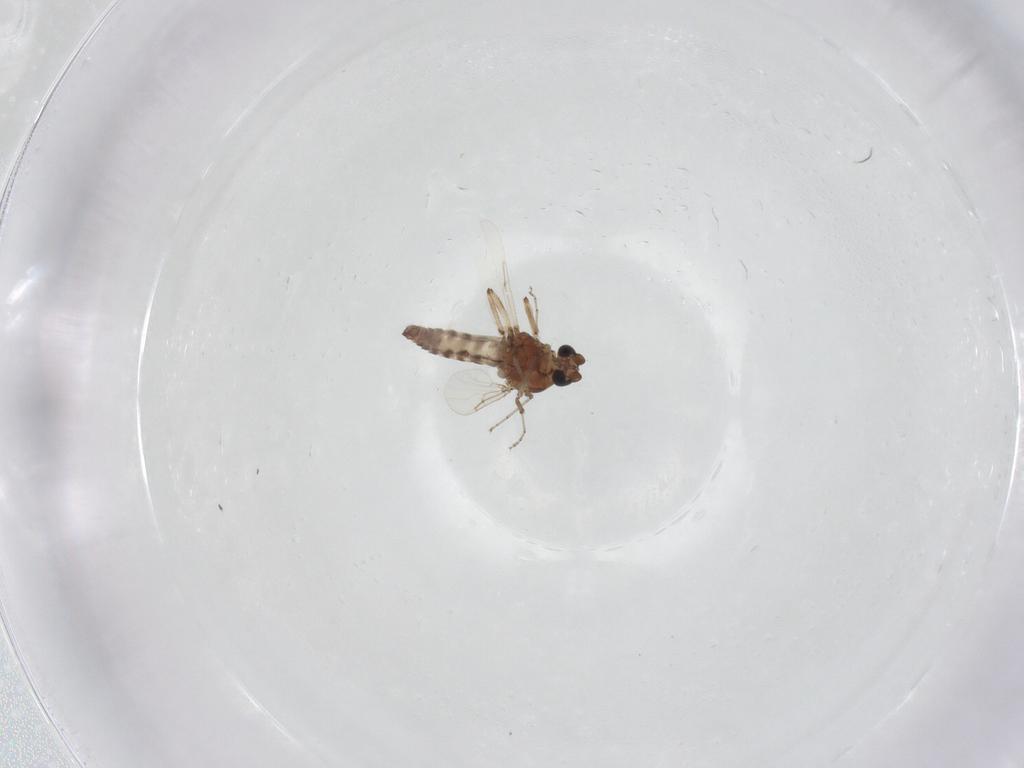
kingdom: Animalia
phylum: Arthropoda
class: Insecta
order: Diptera
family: Ceratopogonidae
